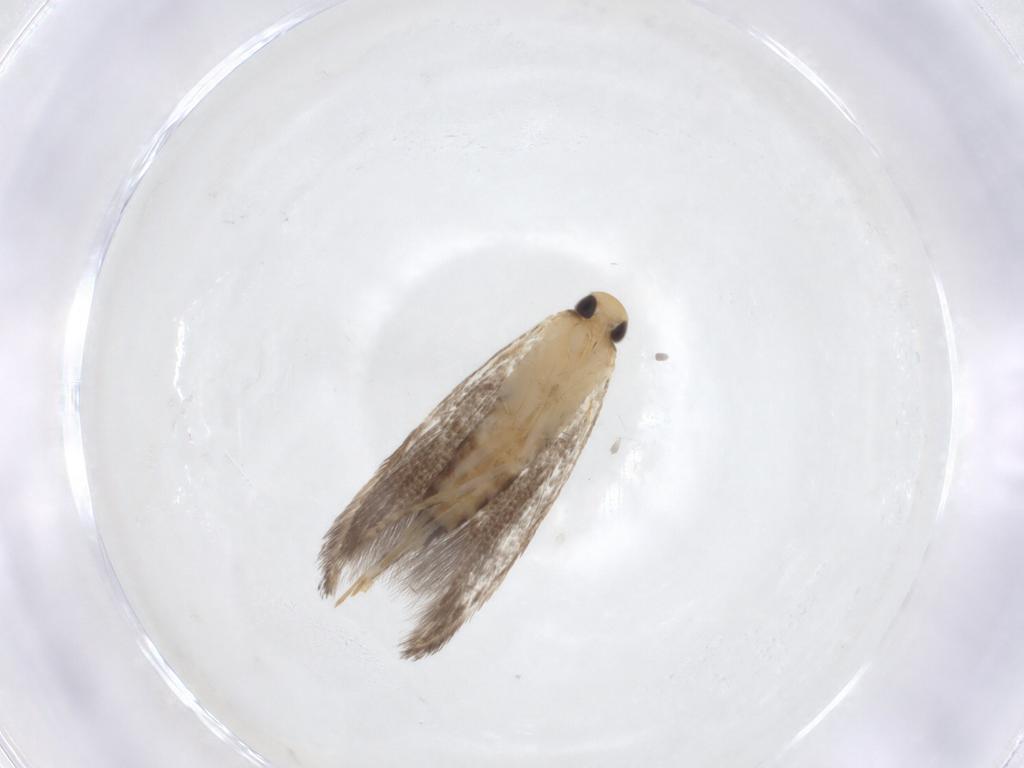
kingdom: Animalia
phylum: Arthropoda
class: Insecta
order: Lepidoptera
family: Momphidae
